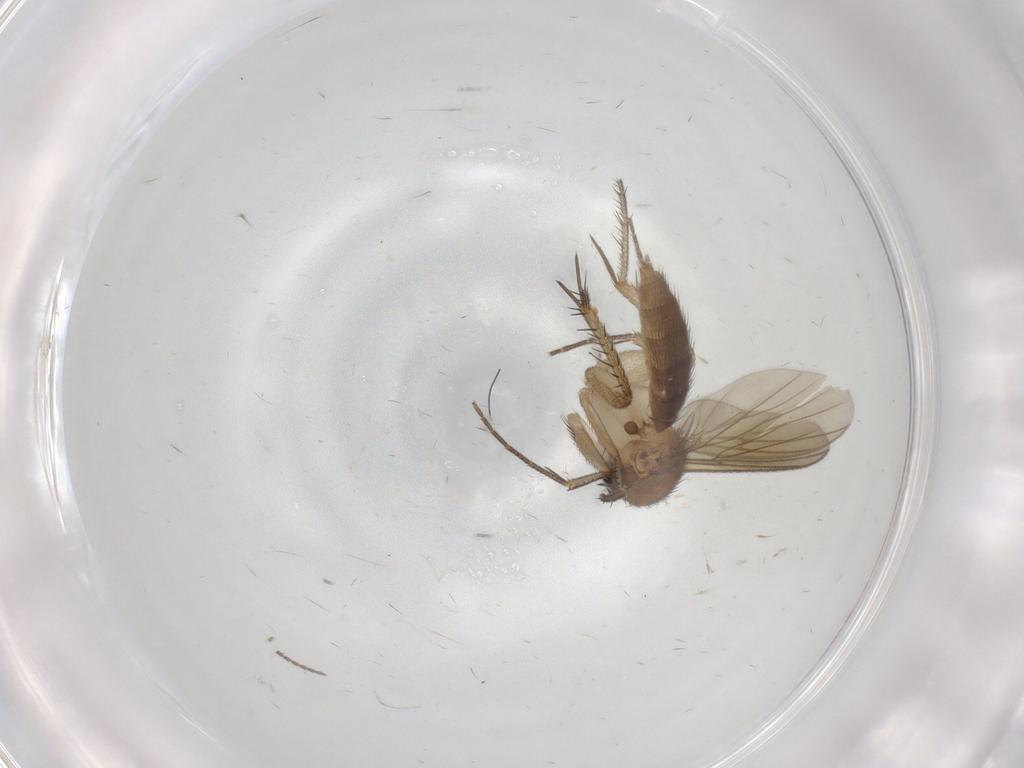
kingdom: Animalia
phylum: Arthropoda
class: Insecta
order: Diptera
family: Mycetophilidae
